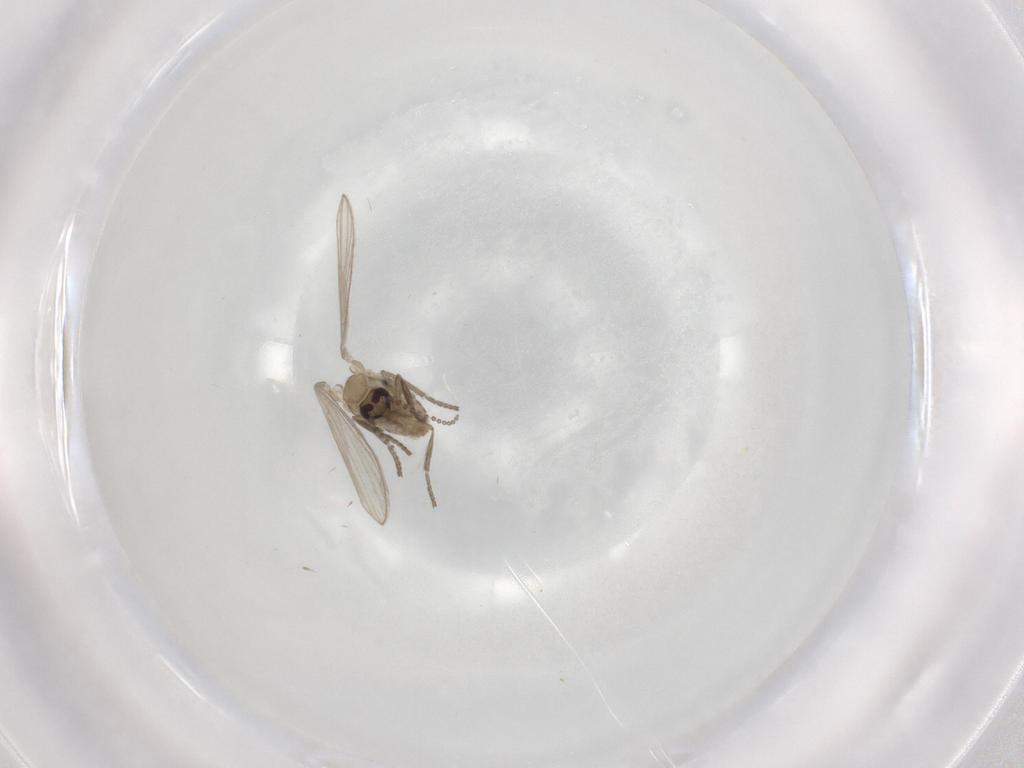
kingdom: Animalia
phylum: Arthropoda
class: Insecta
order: Diptera
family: Psychodidae
